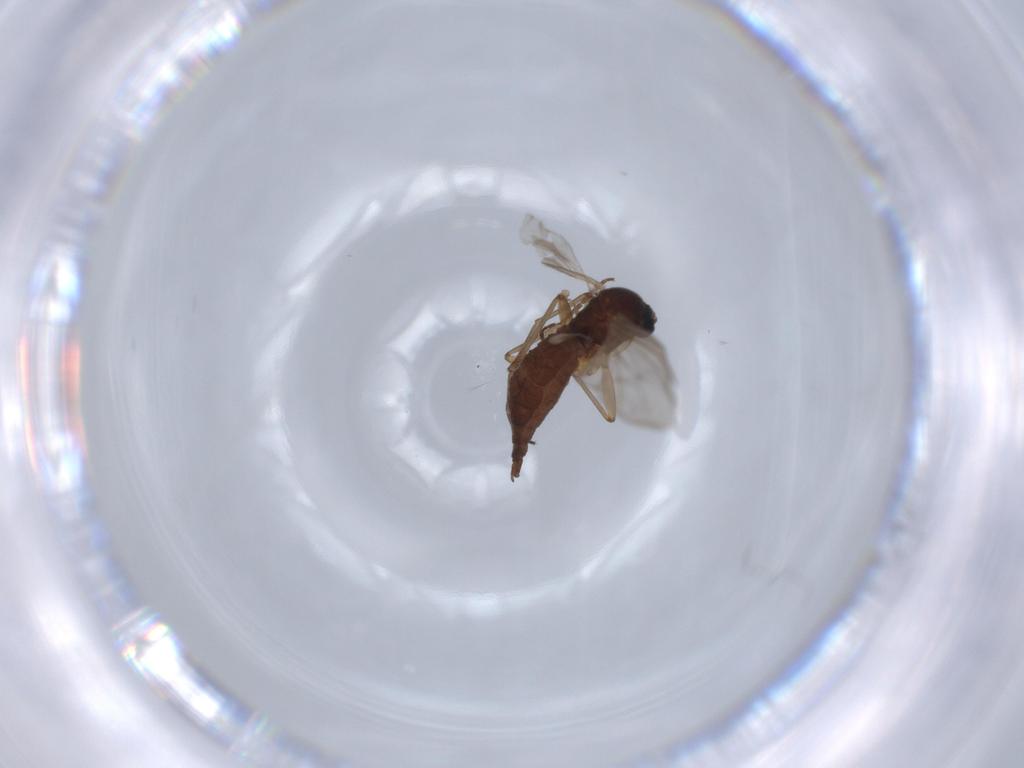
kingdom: Animalia
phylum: Arthropoda
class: Insecta
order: Diptera
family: Sciaridae
